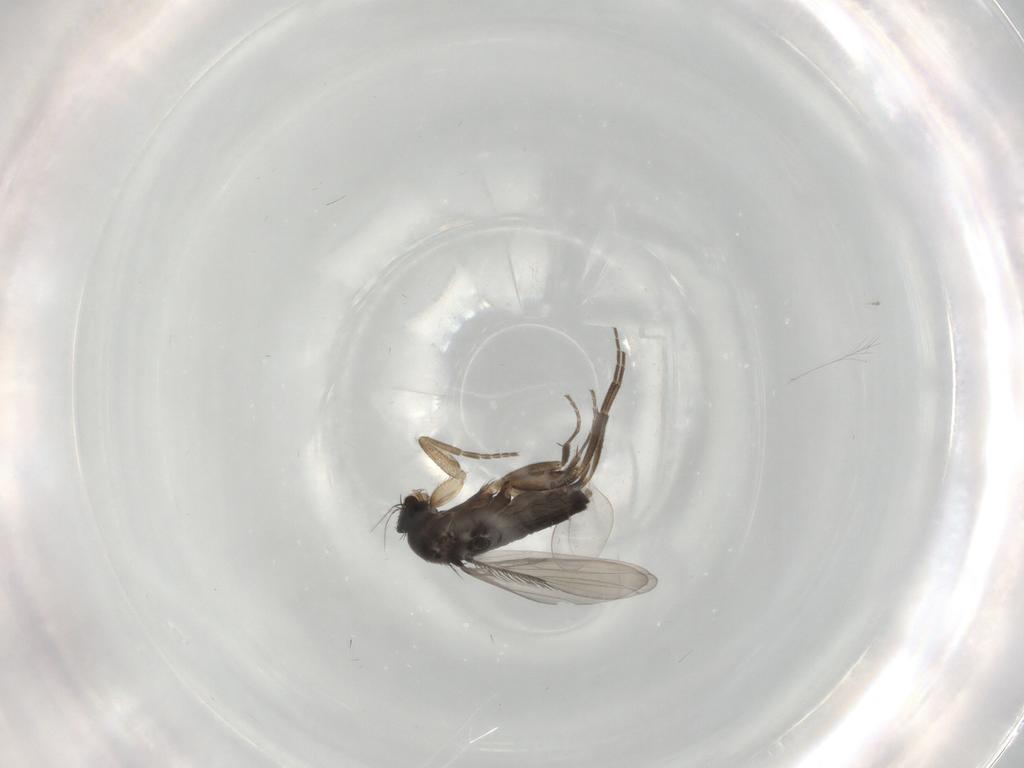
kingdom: Animalia
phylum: Arthropoda
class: Insecta
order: Diptera
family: Phoridae
